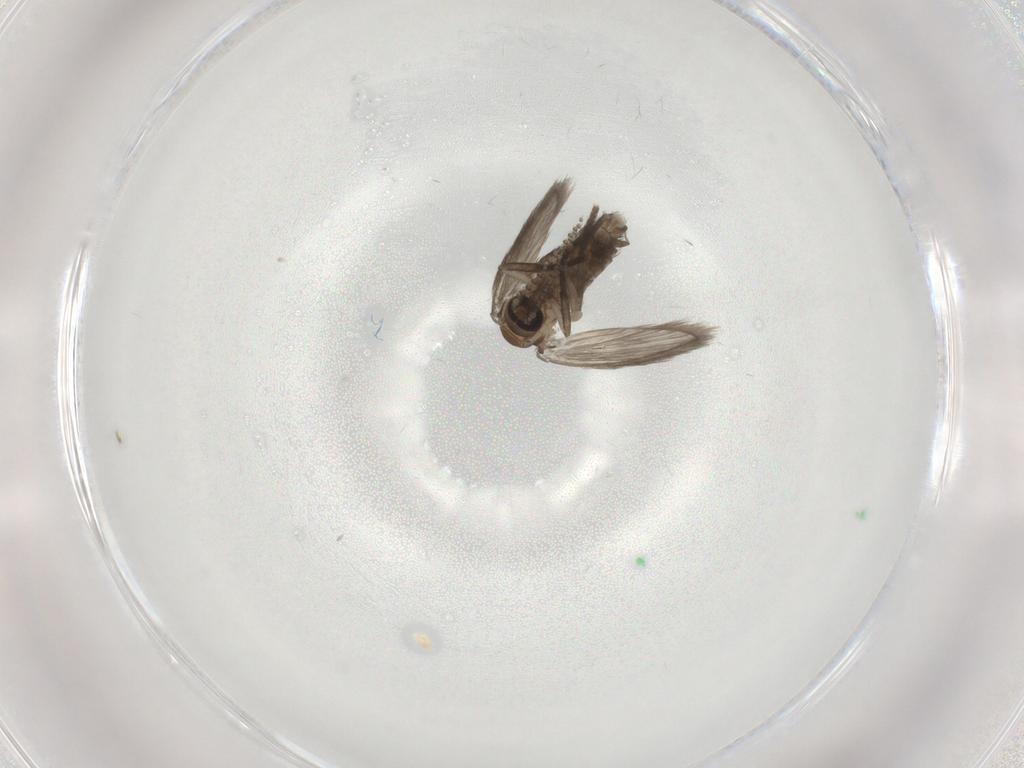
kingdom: Animalia
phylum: Arthropoda
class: Insecta
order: Diptera
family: Psychodidae
